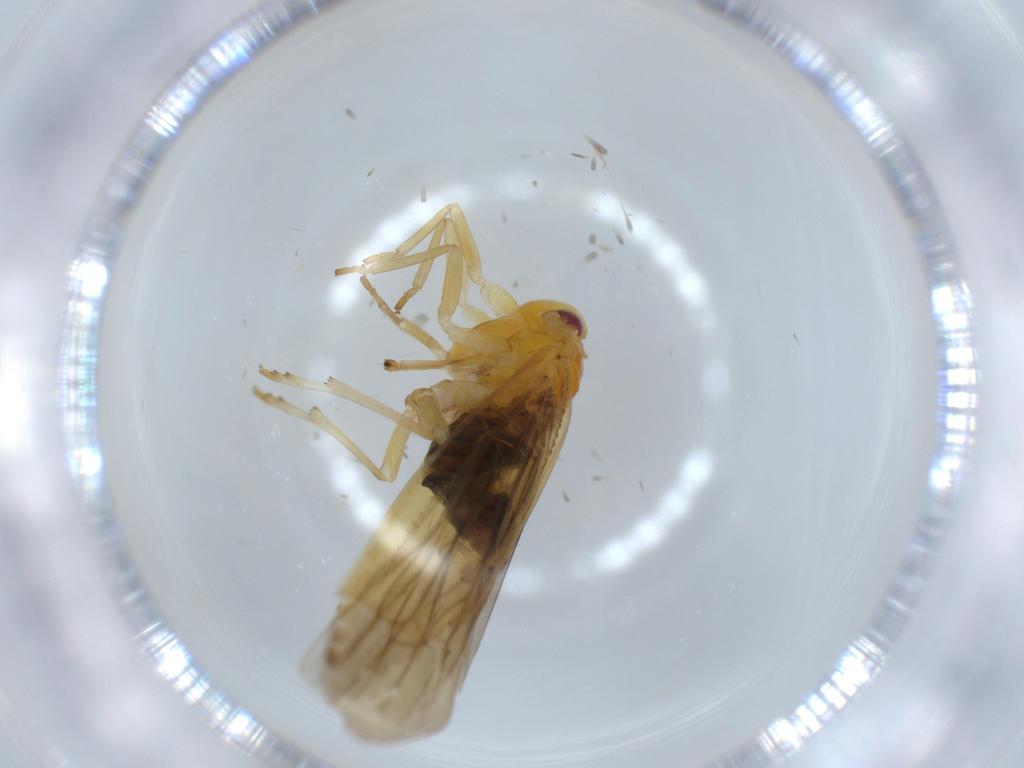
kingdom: Animalia
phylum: Arthropoda
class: Insecta
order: Hemiptera
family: Derbidae
